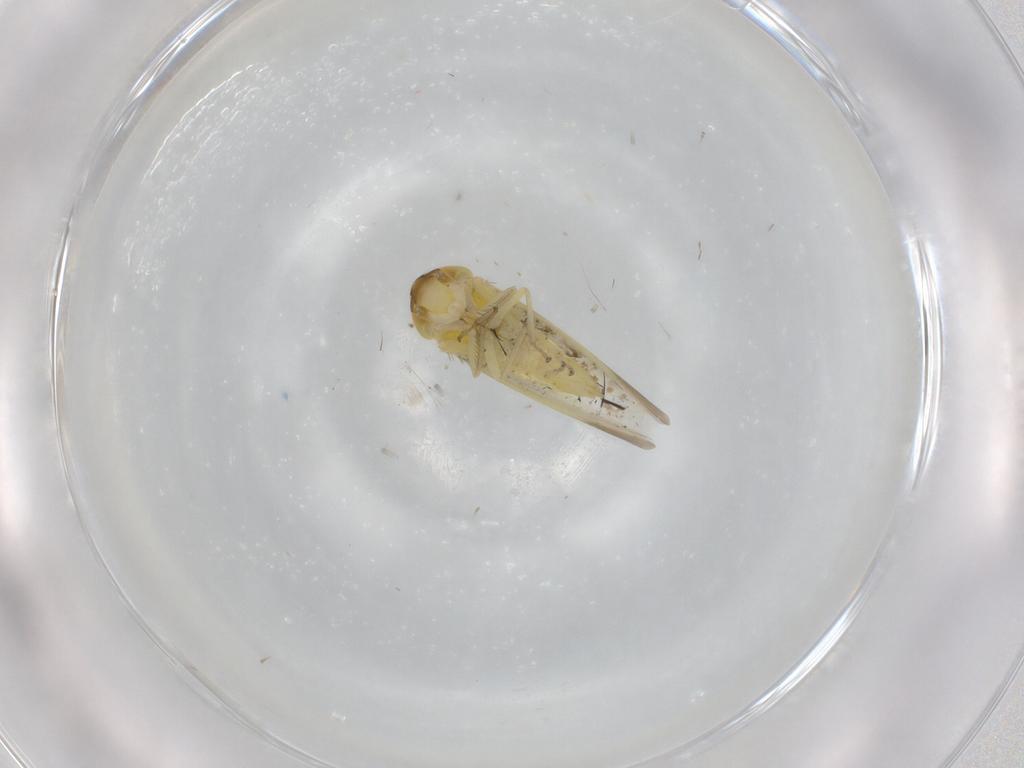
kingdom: Animalia
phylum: Arthropoda
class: Insecta
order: Hemiptera
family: Cicadellidae
